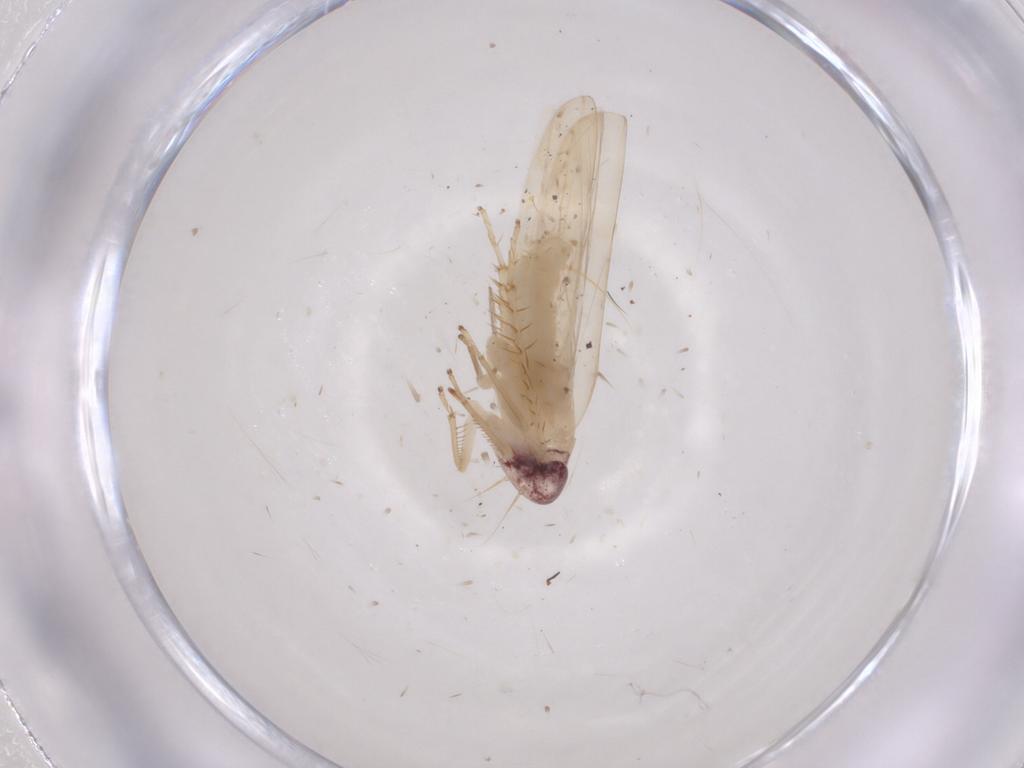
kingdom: Animalia
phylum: Arthropoda
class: Insecta
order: Hemiptera
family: Cicadellidae
